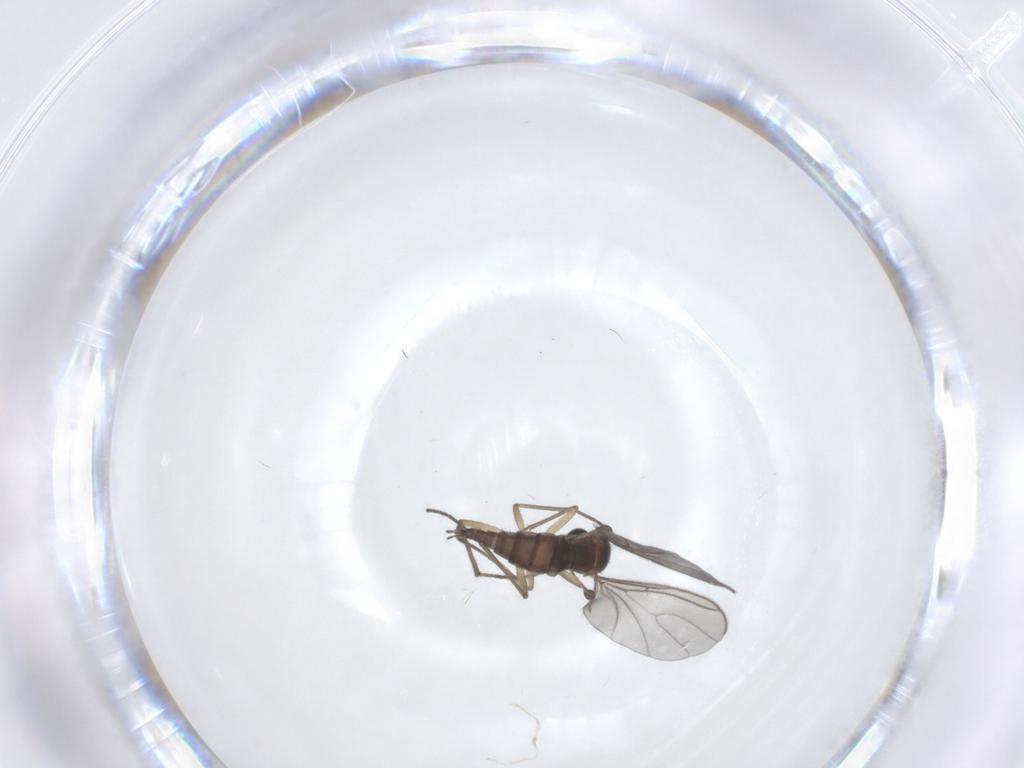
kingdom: Animalia
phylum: Arthropoda
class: Insecta
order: Diptera
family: Sciaridae
